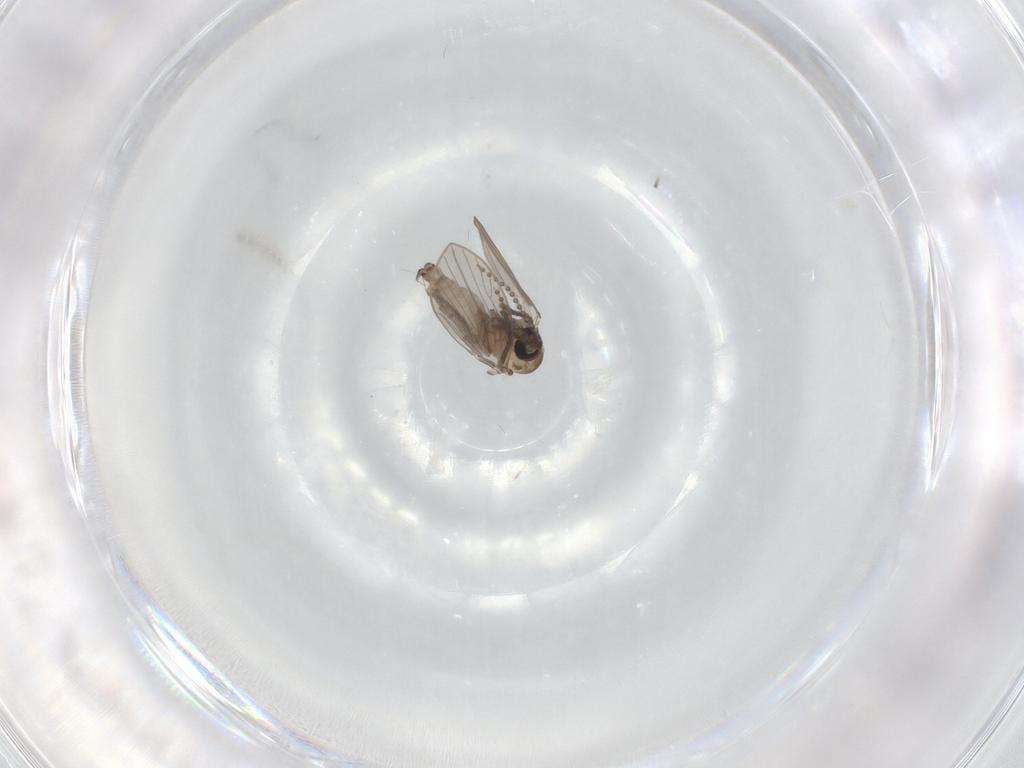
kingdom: Animalia
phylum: Arthropoda
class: Insecta
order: Diptera
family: Psychodidae
